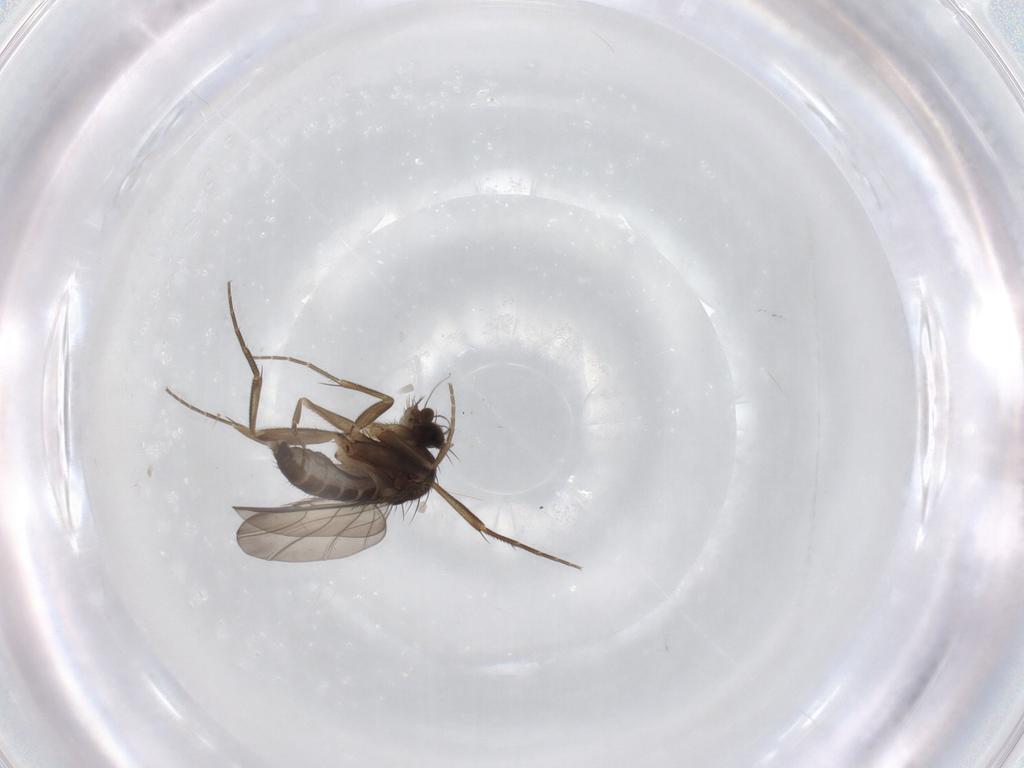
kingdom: Animalia
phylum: Arthropoda
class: Insecta
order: Diptera
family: Phoridae
